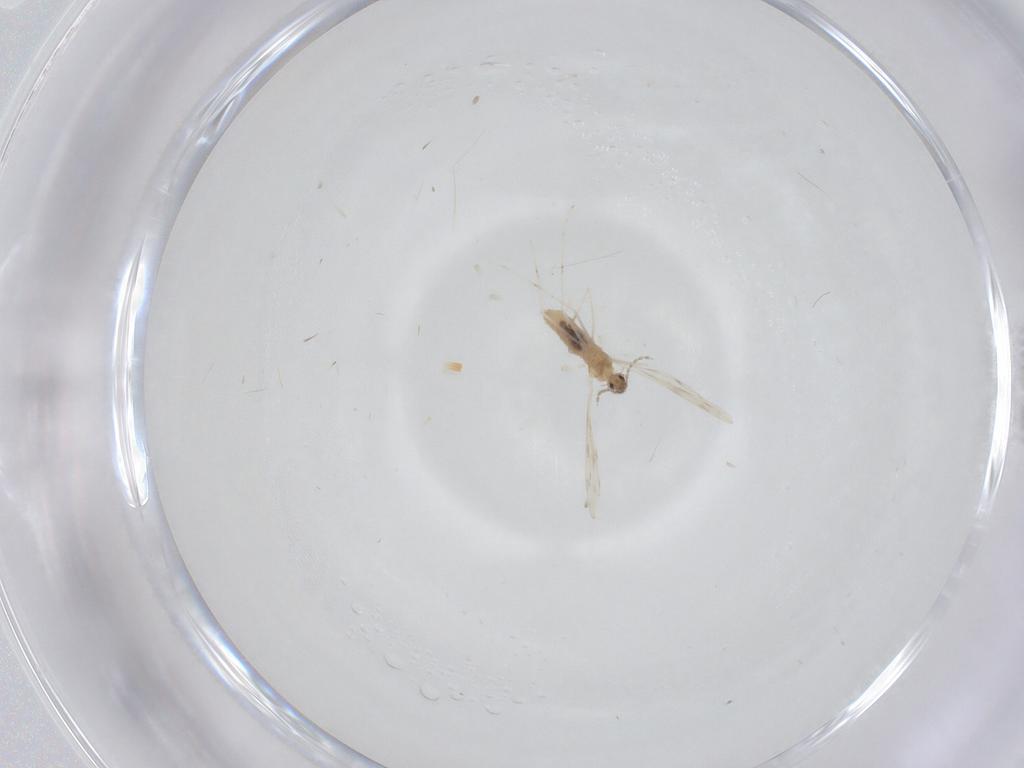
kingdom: Animalia
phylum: Arthropoda
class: Insecta
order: Diptera
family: Cecidomyiidae
